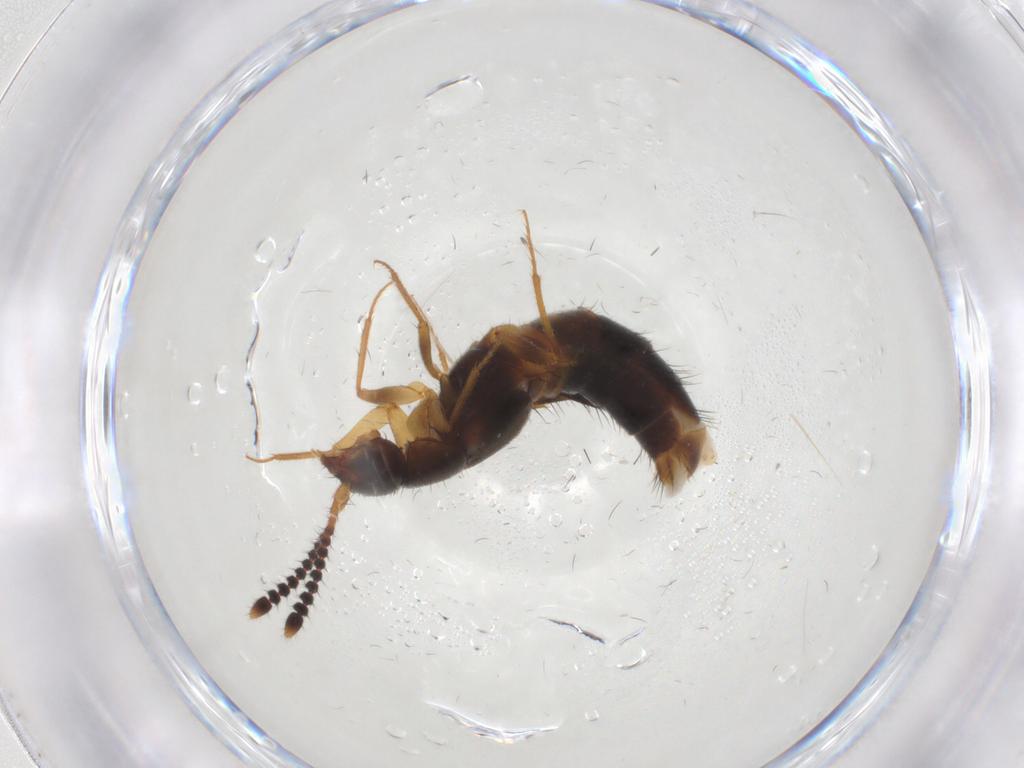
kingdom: Animalia
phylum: Arthropoda
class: Insecta
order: Coleoptera
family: Staphylinidae
